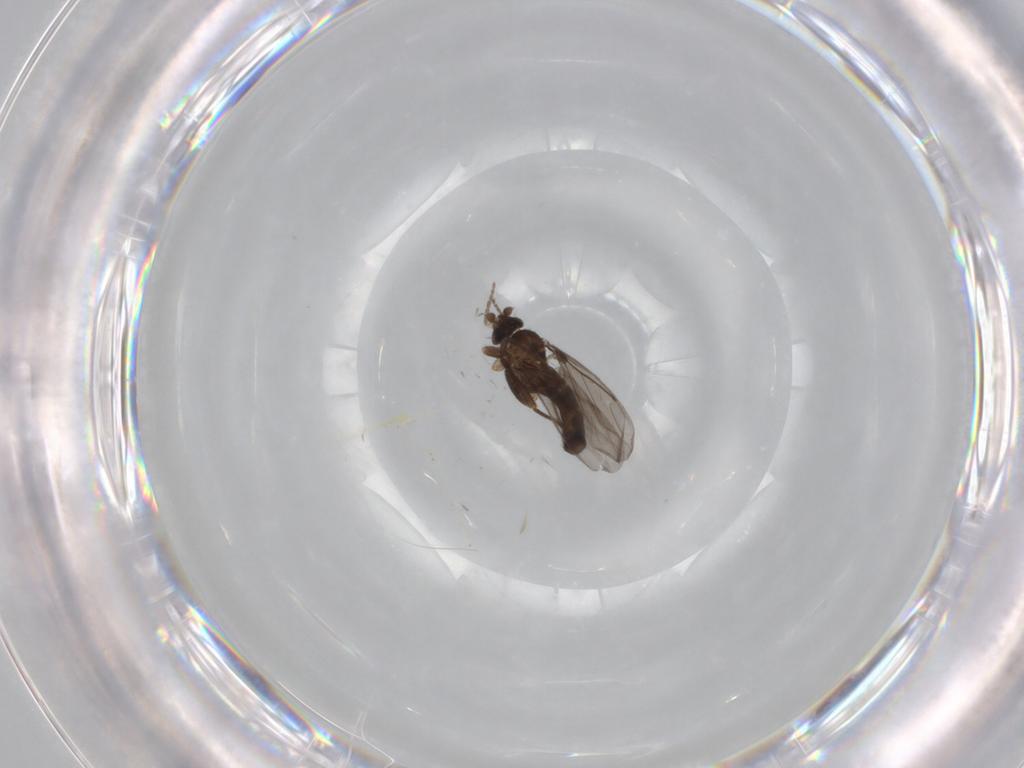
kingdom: Animalia
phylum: Arthropoda
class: Insecta
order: Diptera
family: Cecidomyiidae
